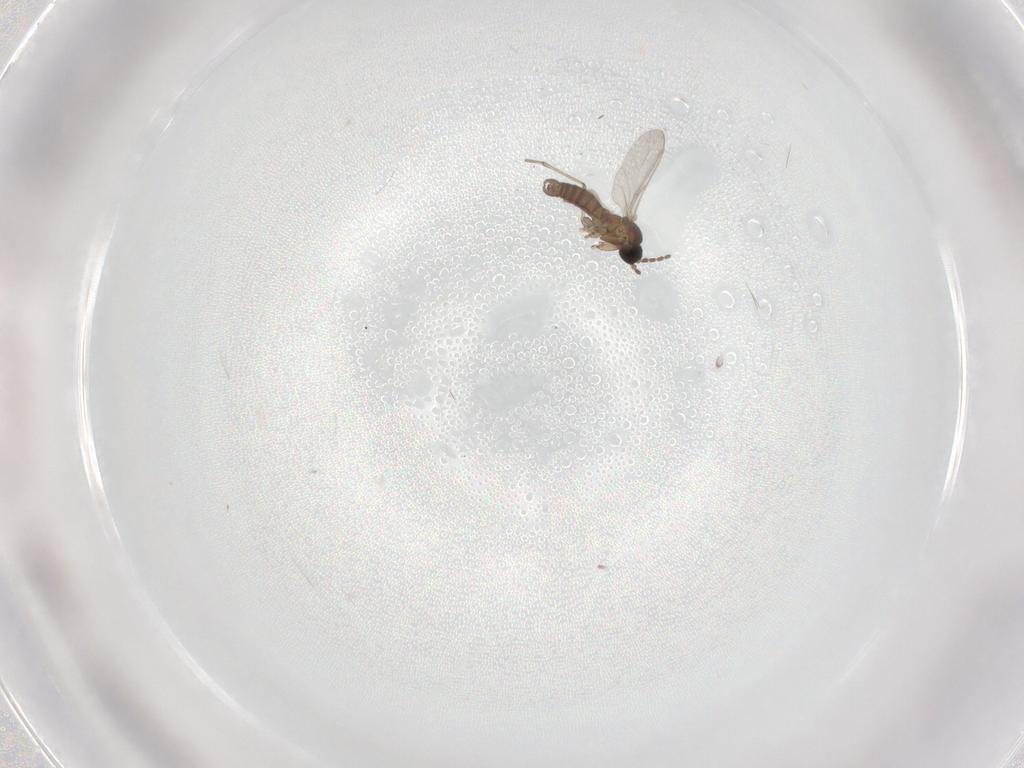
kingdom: Animalia
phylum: Arthropoda
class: Insecta
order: Diptera
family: Sciaridae
